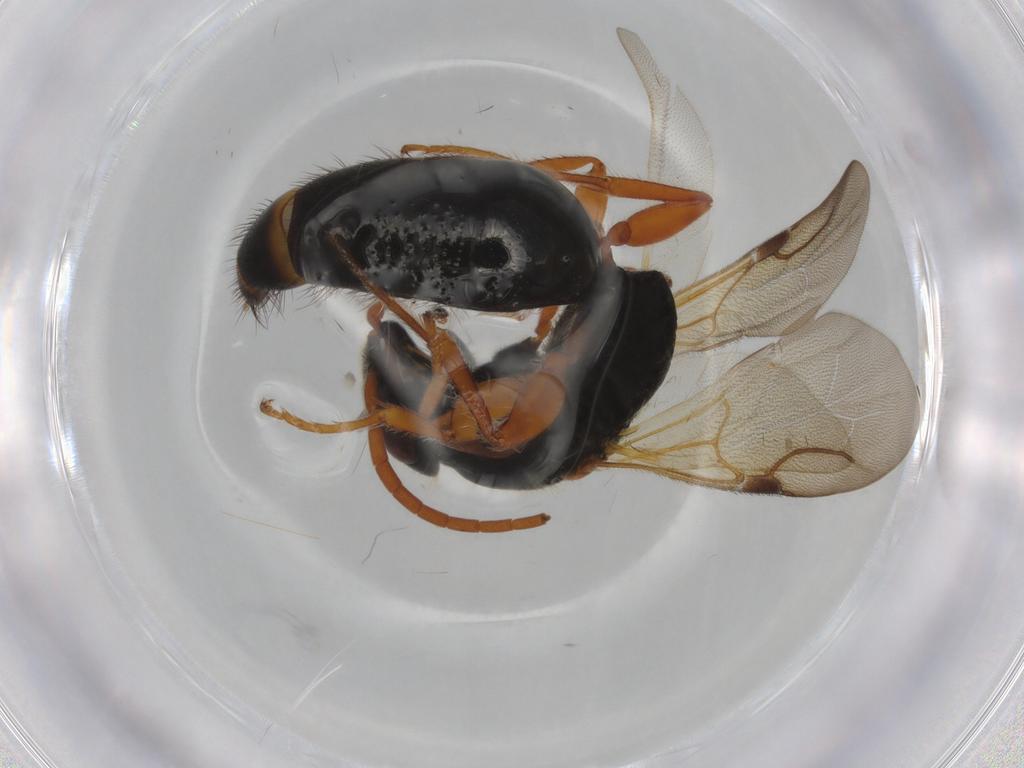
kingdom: Animalia
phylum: Arthropoda
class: Insecta
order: Hymenoptera
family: Bethylidae
